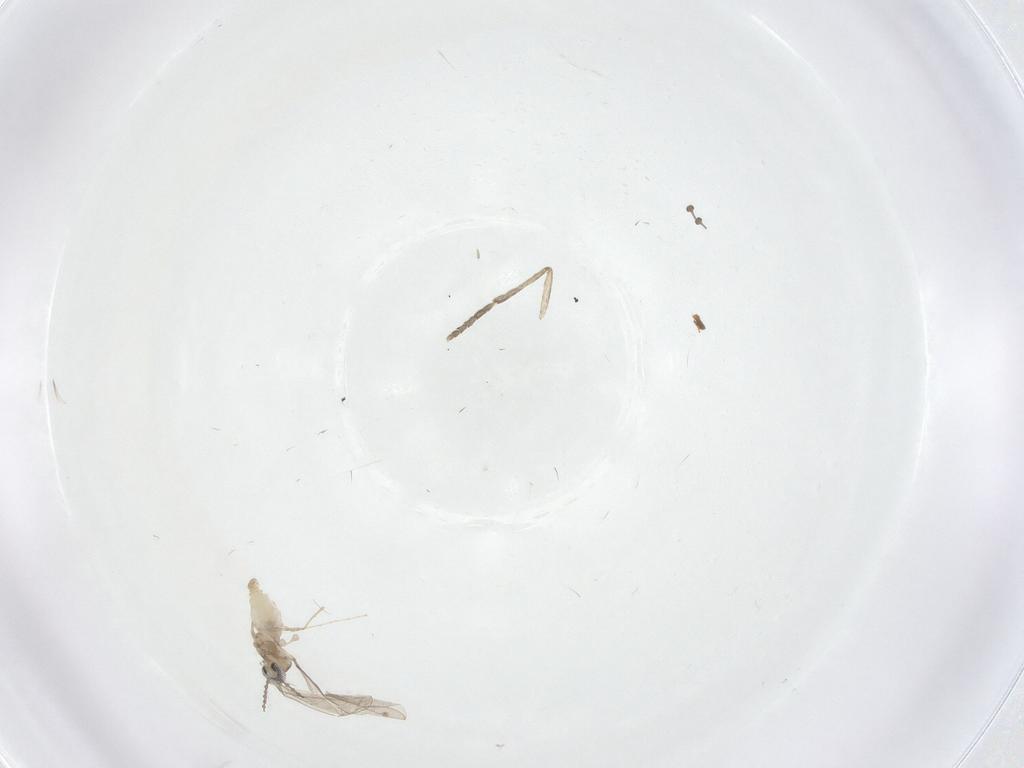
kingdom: Animalia
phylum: Arthropoda
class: Insecta
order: Diptera
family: Psychodidae
